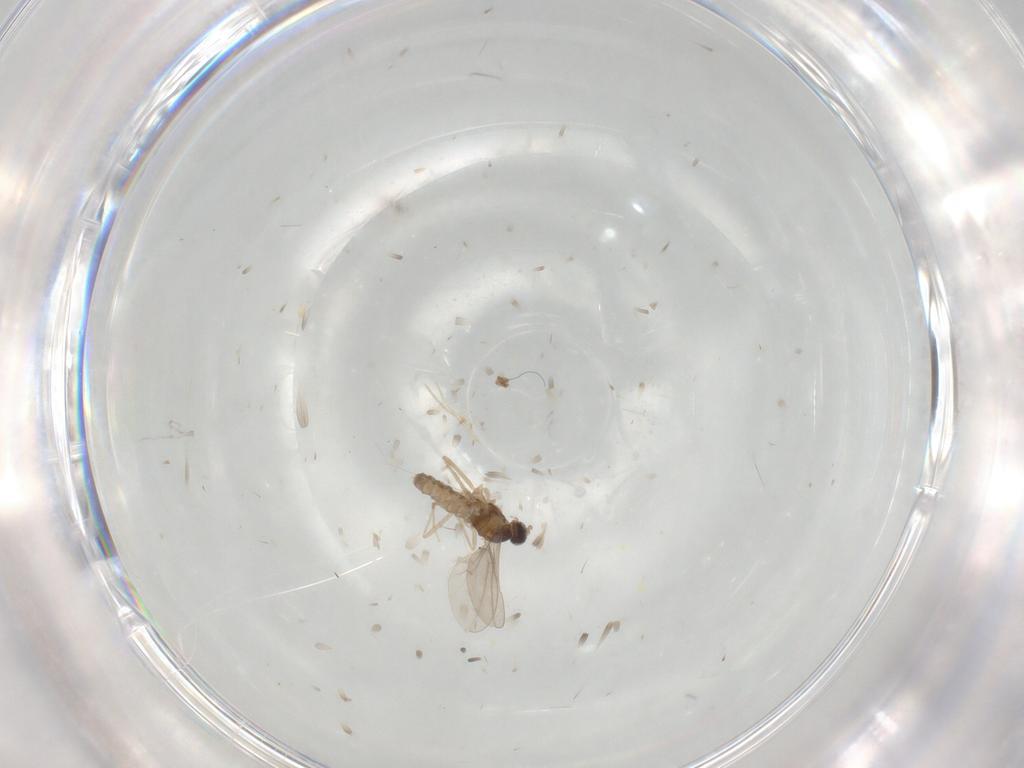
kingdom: Animalia
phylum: Arthropoda
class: Insecta
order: Diptera
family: Cecidomyiidae
